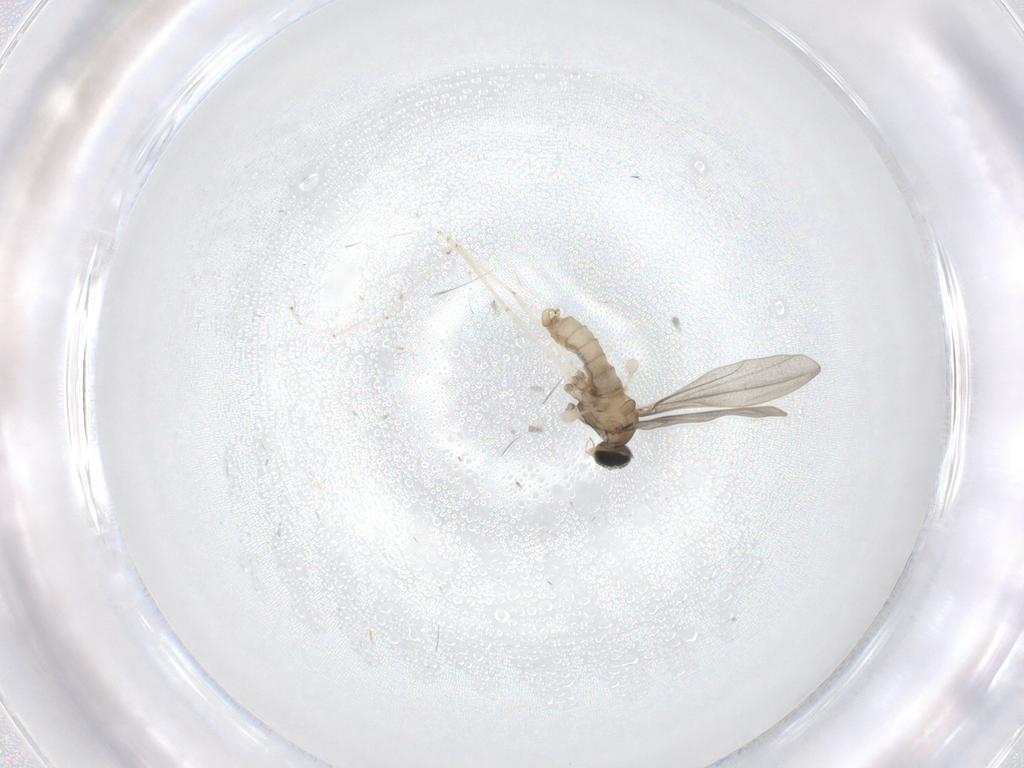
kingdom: Animalia
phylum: Arthropoda
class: Insecta
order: Diptera
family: Cecidomyiidae
